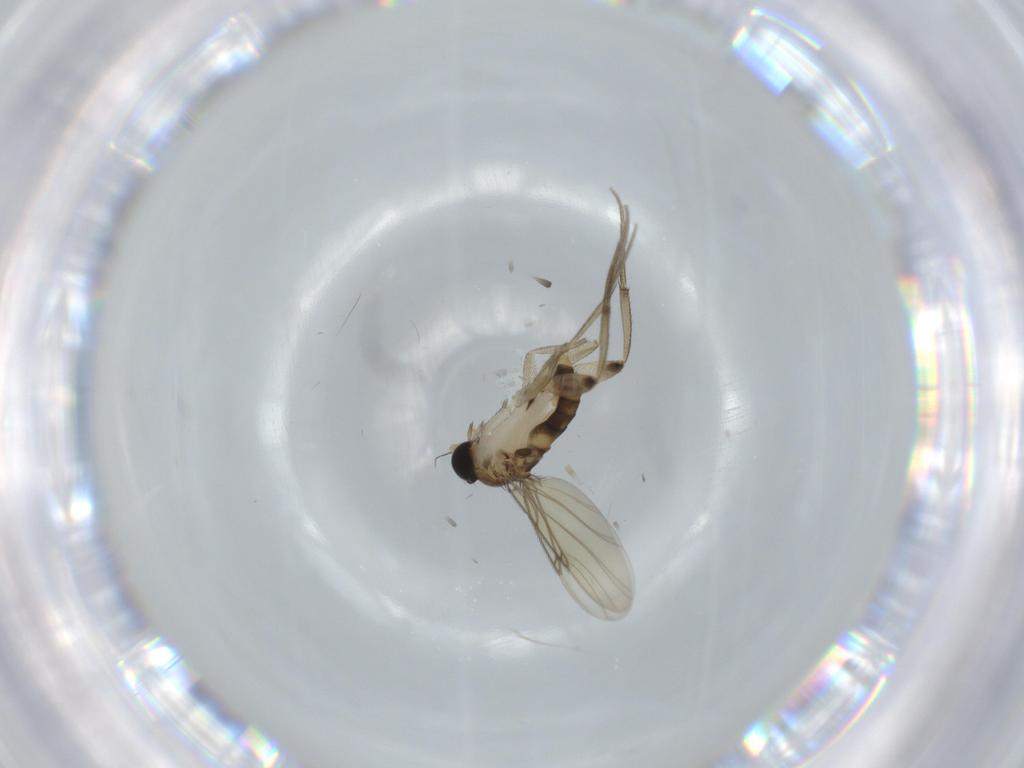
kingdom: Animalia
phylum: Arthropoda
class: Insecta
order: Diptera
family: Phoridae
